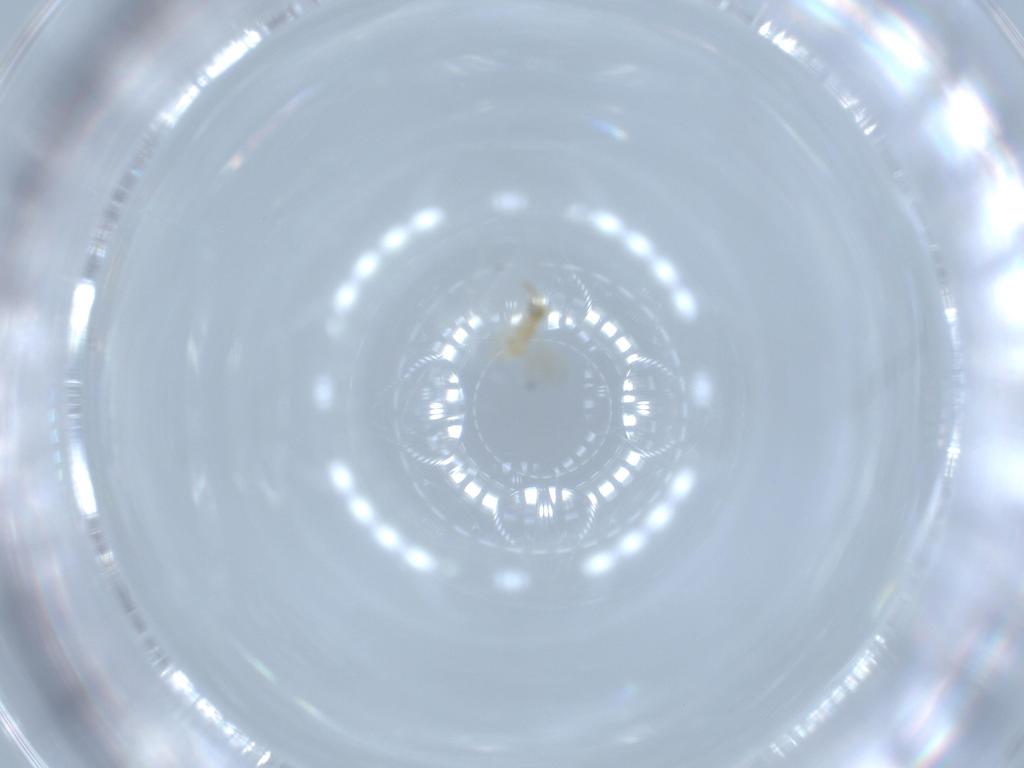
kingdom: Animalia
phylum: Arthropoda
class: Insecta
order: Hymenoptera
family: Aphelinidae
